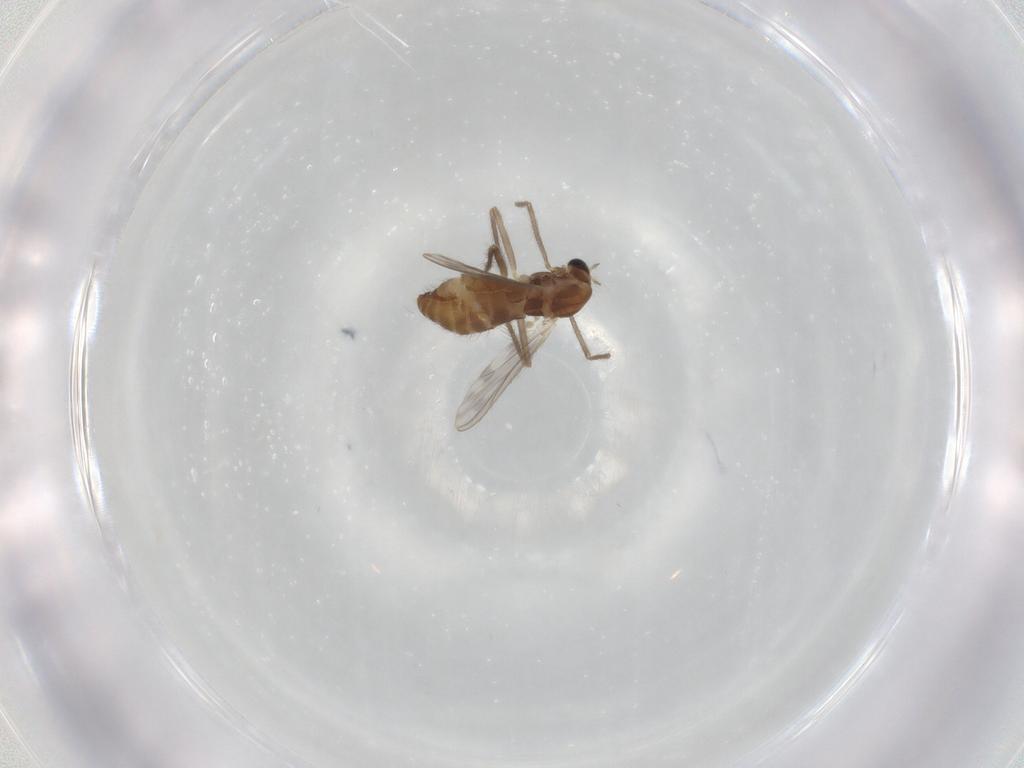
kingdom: Animalia
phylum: Arthropoda
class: Insecta
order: Diptera
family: Chironomidae
